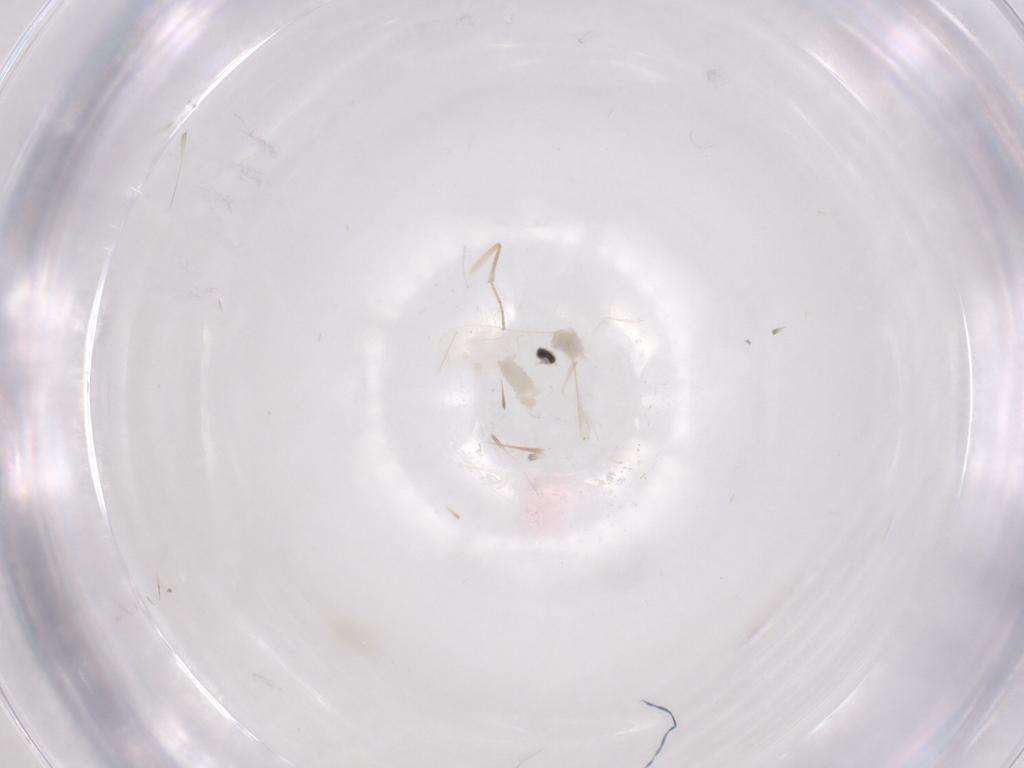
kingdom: Animalia
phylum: Arthropoda
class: Insecta
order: Diptera
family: Cecidomyiidae
